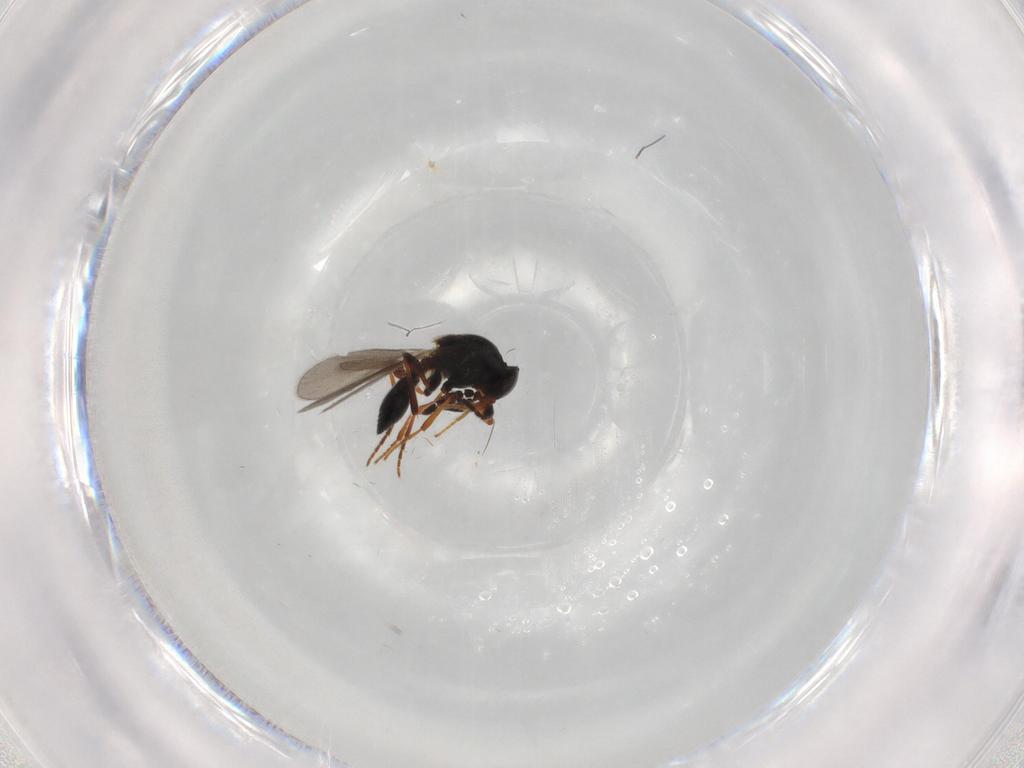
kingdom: Animalia
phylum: Arthropoda
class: Insecta
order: Hymenoptera
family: Platygastridae
